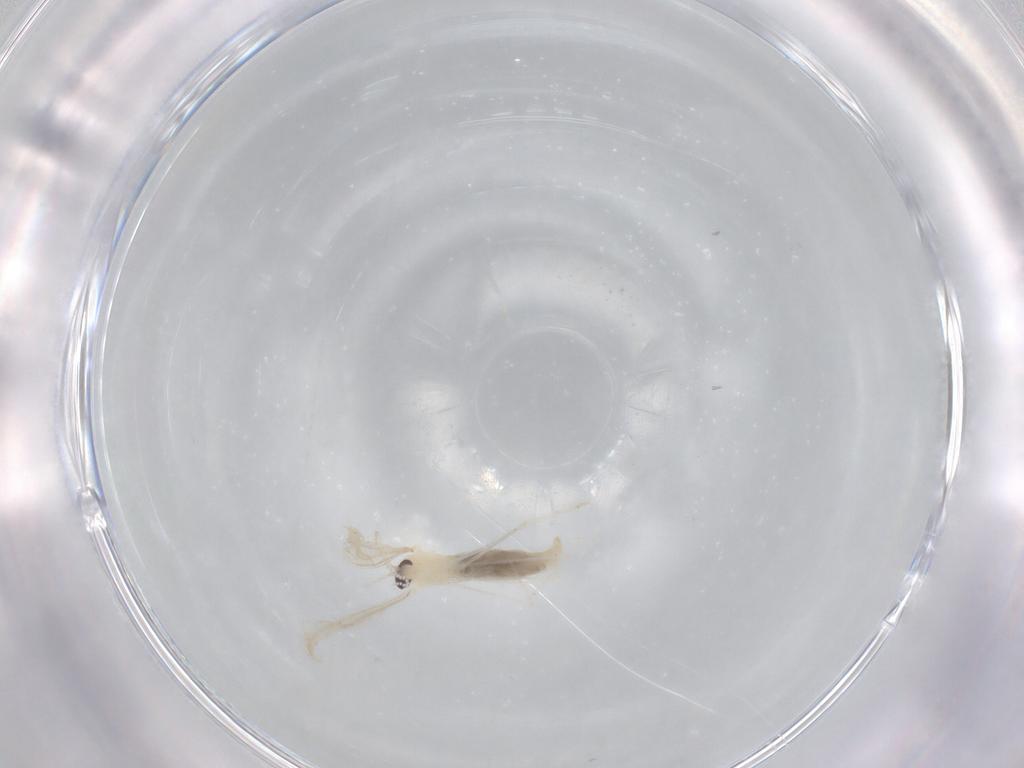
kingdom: Animalia
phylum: Arthropoda
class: Insecta
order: Diptera
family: Cecidomyiidae
